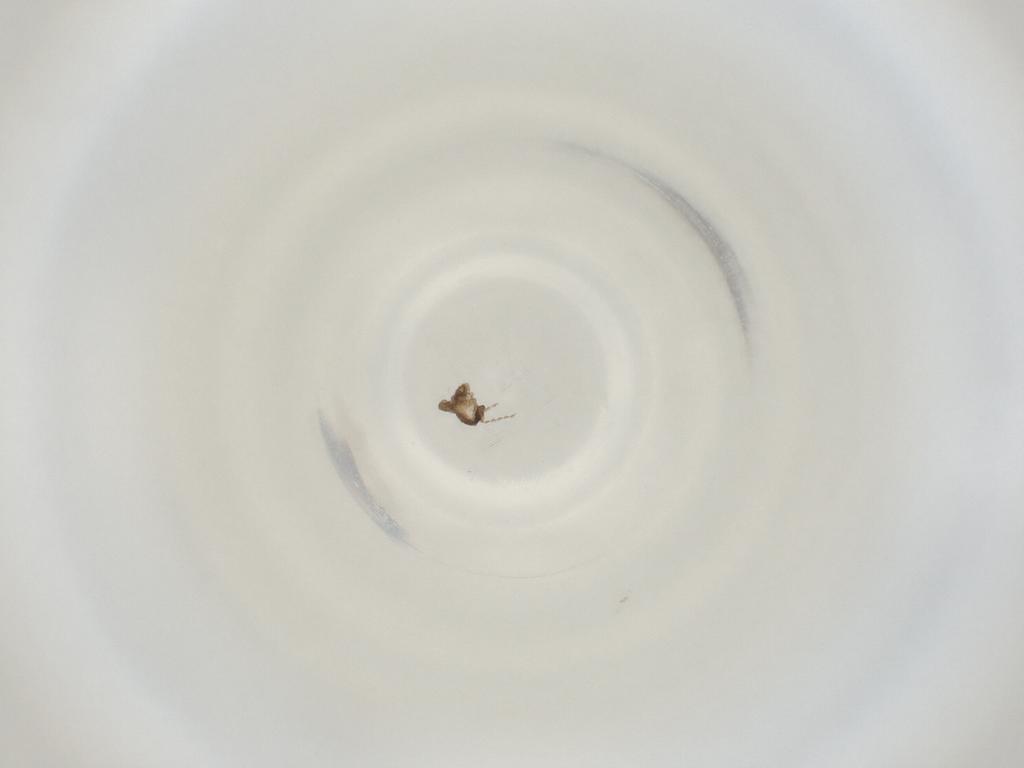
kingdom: Animalia
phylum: Arthropoda
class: Insecta
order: Diptera
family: Cecidomyiidae
